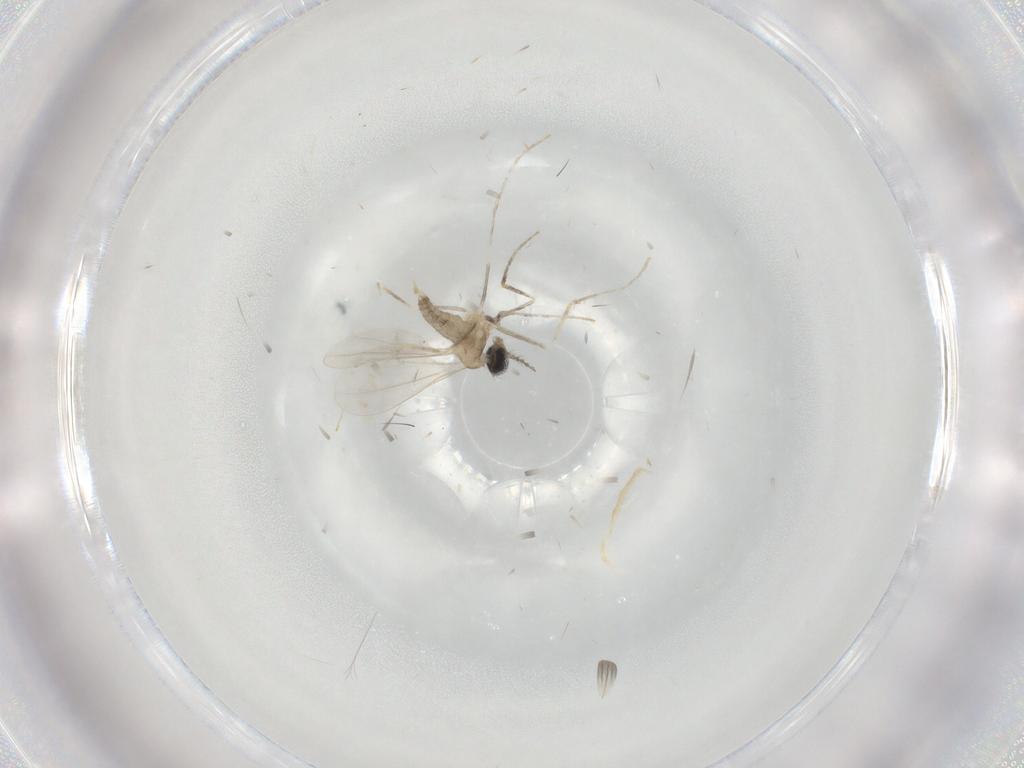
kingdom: Animalia
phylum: Arthropoda
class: Insecta
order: Diptera
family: Cecidomyiidae
